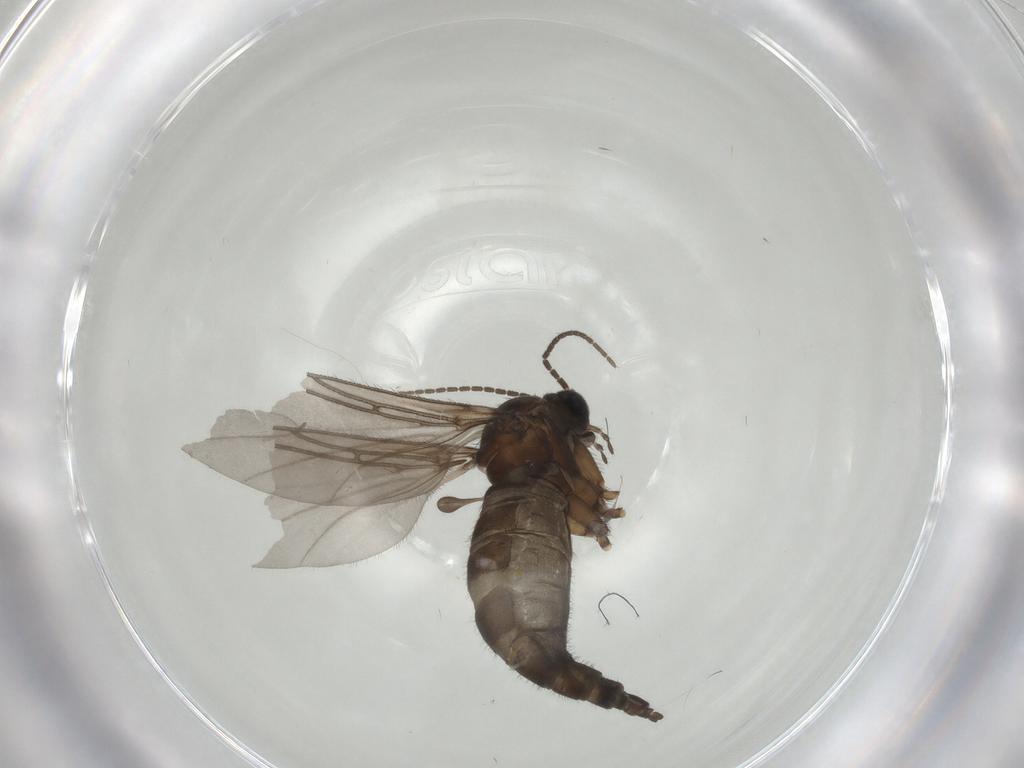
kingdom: Animalia
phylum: Arthropoda
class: Insecta
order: Diptera
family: Sciaridae
